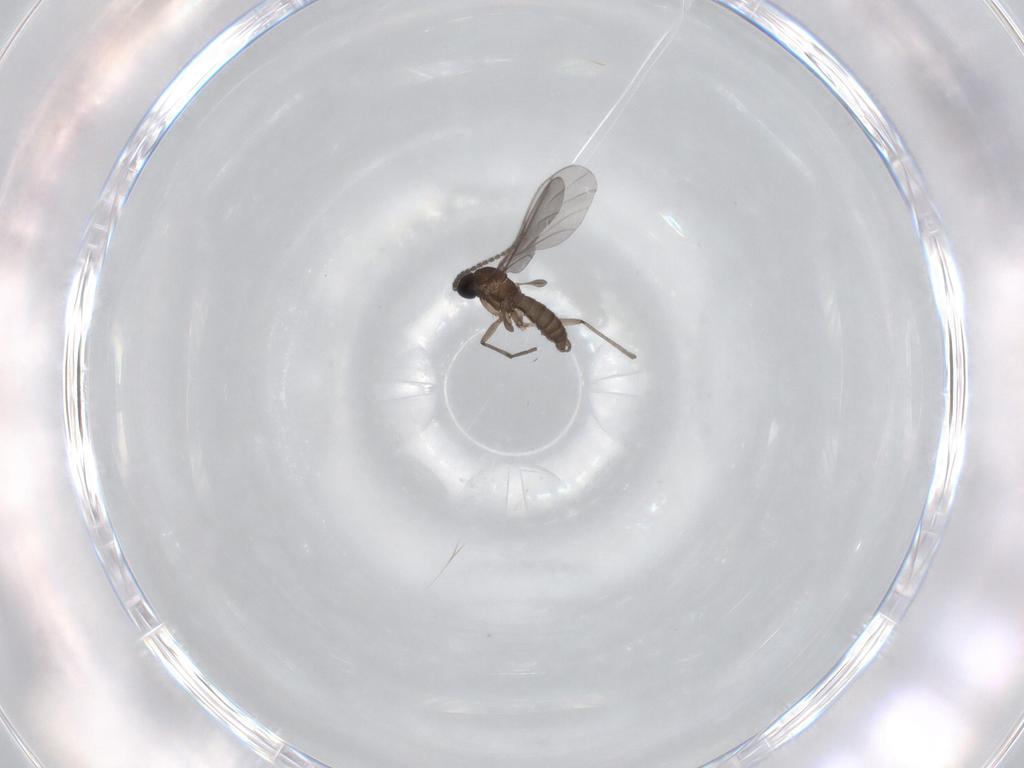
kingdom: Animalia
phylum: Arthropoda
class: Insecta
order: Diptera
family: Sciaridae
